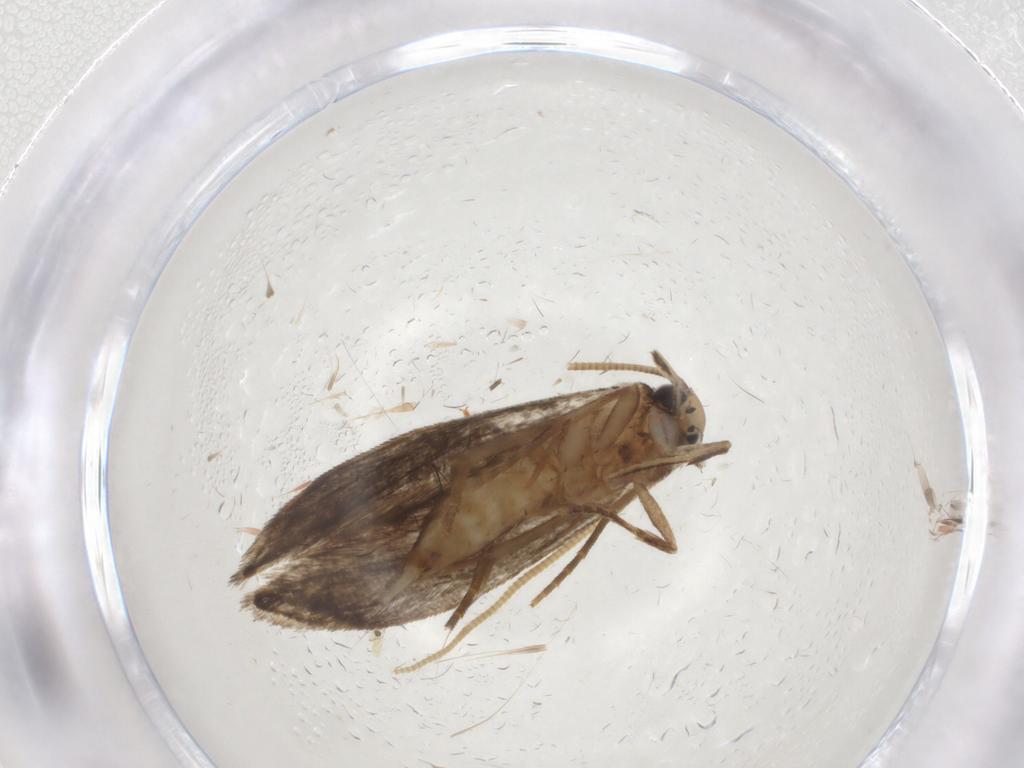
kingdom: Animalia
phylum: Arthropoda
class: Insecta
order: Lepidoptera
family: Tineidae
